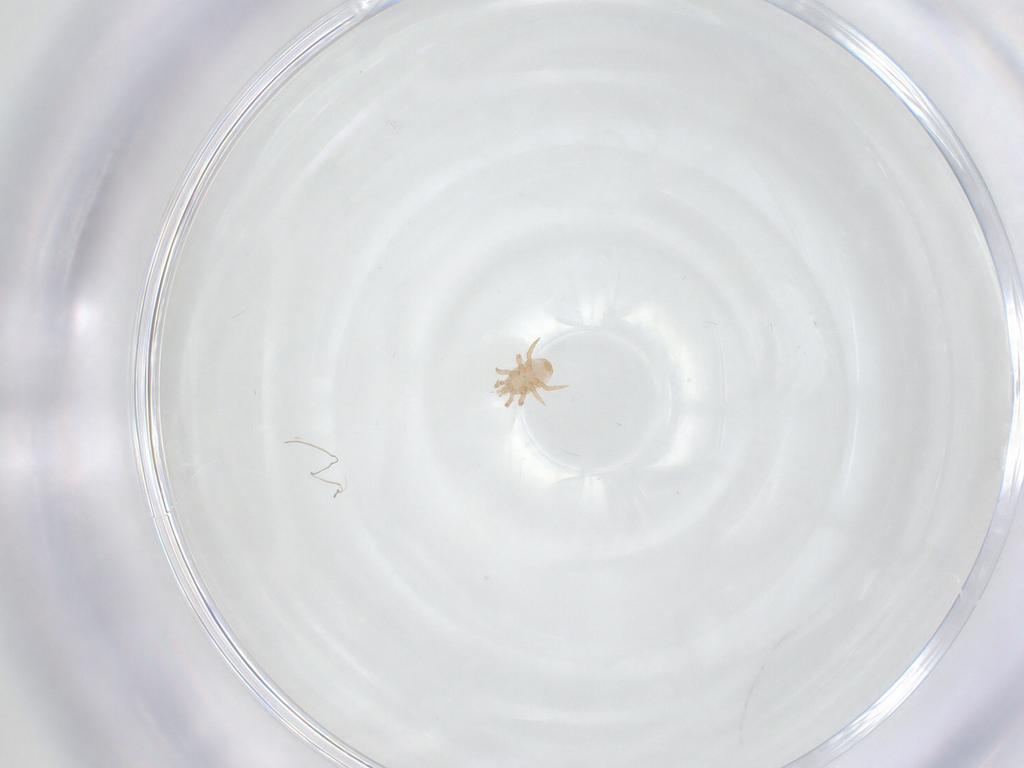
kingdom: Animalia
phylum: Arthropoda
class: Arachnida
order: Mesostigmata
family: Halolaelapidae
